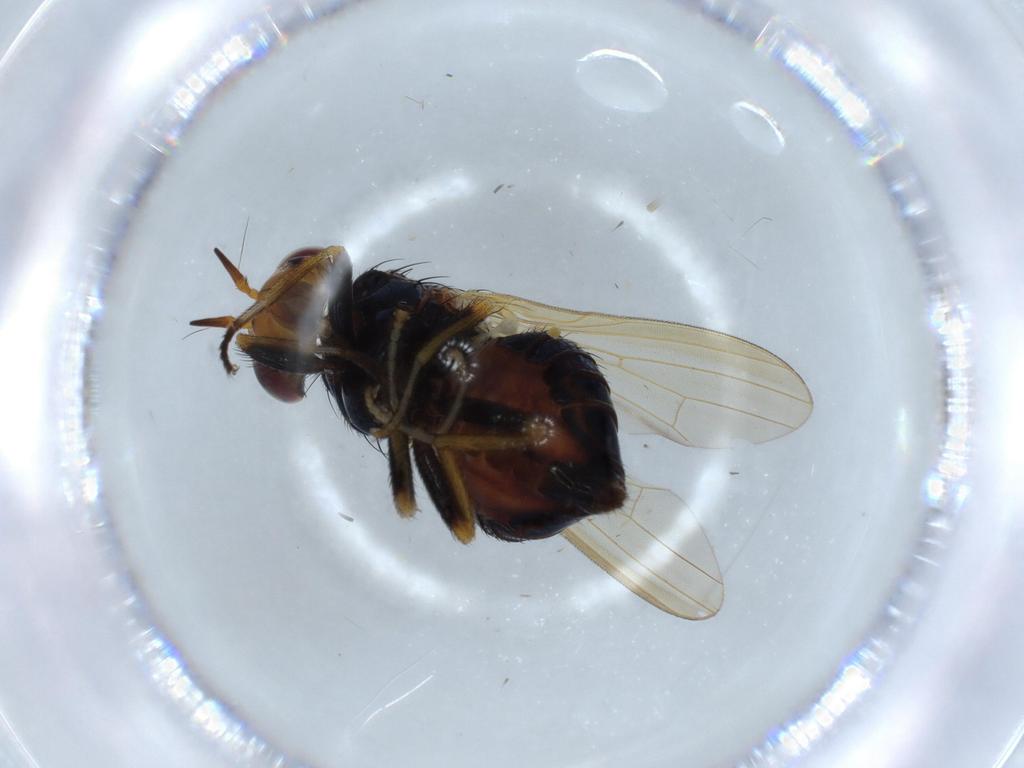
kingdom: Animalia
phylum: Arthropoda
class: Insecta
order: Diptera
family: Lauxaniidae
